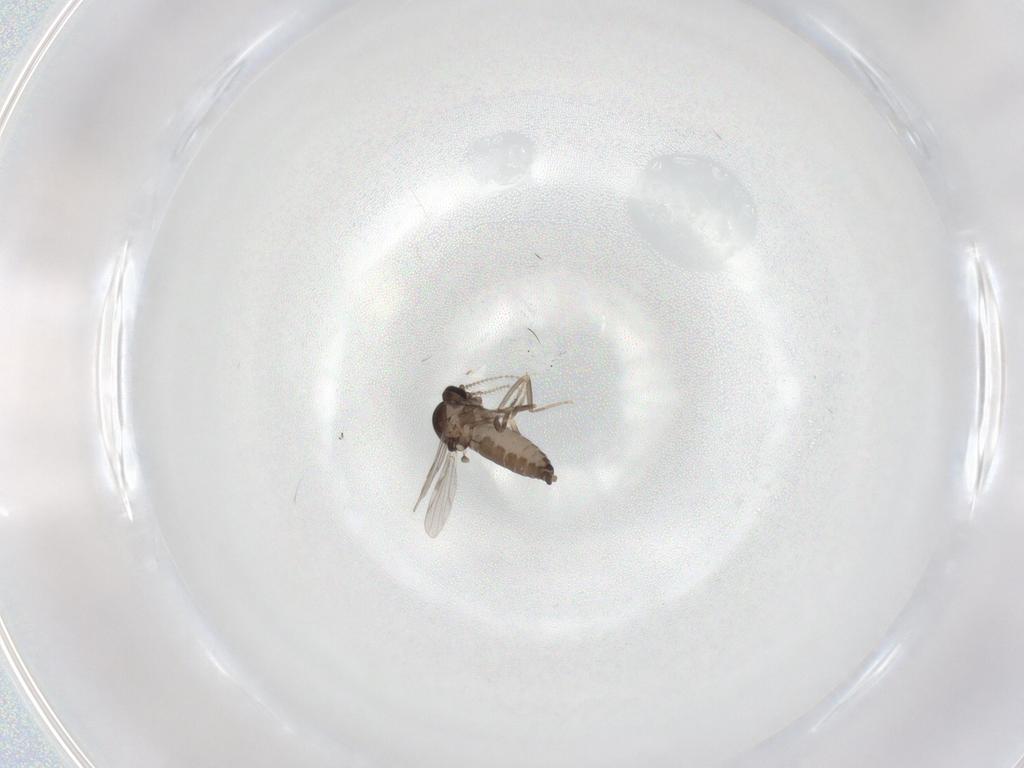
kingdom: Animalia
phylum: Arthropoda
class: Insecta
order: Diptera
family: Ceratopogonidae
